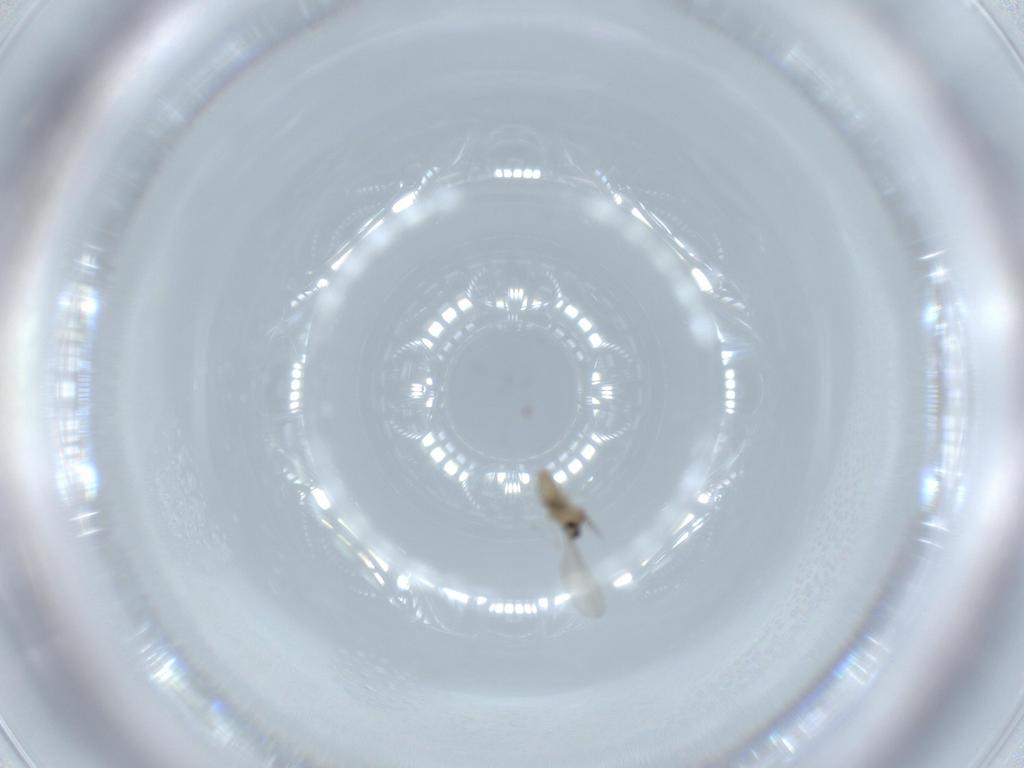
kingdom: Animalia
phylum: Arthropoda
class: Insecta
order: Diptera
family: Cecidomyiidae
